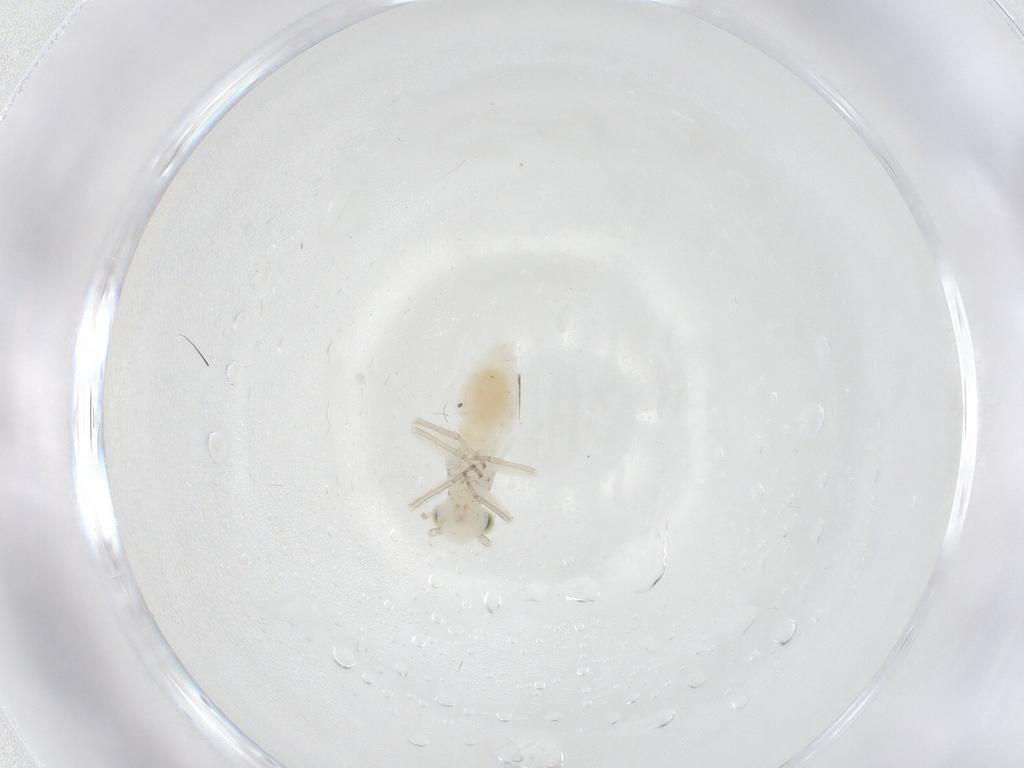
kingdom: Animalia
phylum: Arthropoda
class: Insecta
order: Psocodea
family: Caeciliusidae
